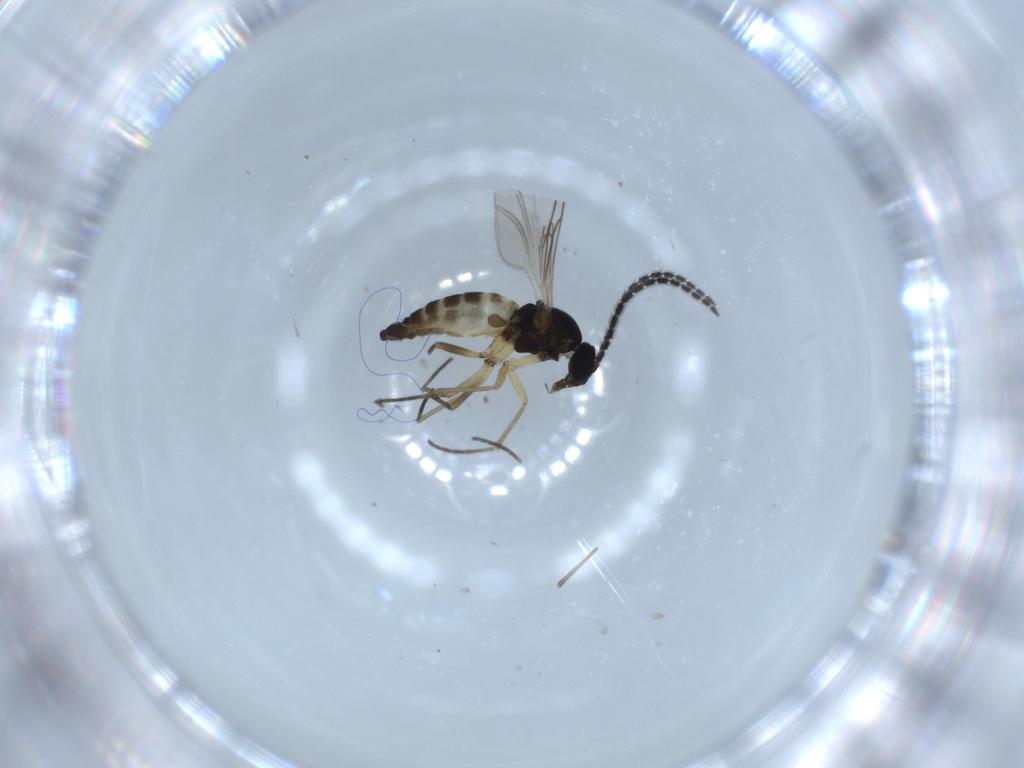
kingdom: Animalia
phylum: Arthropoda
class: Insecta
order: Diptera
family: Sciaridae
